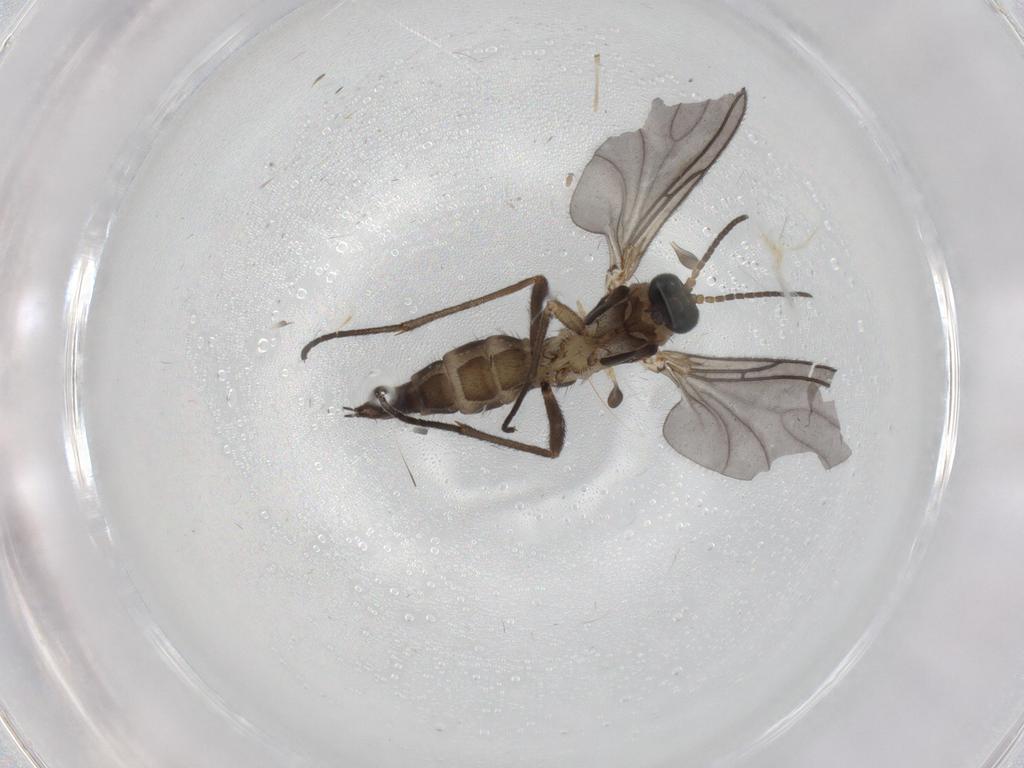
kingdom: Animalia
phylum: Arthropoda
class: Insecta
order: Diptera
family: Sciaridae
